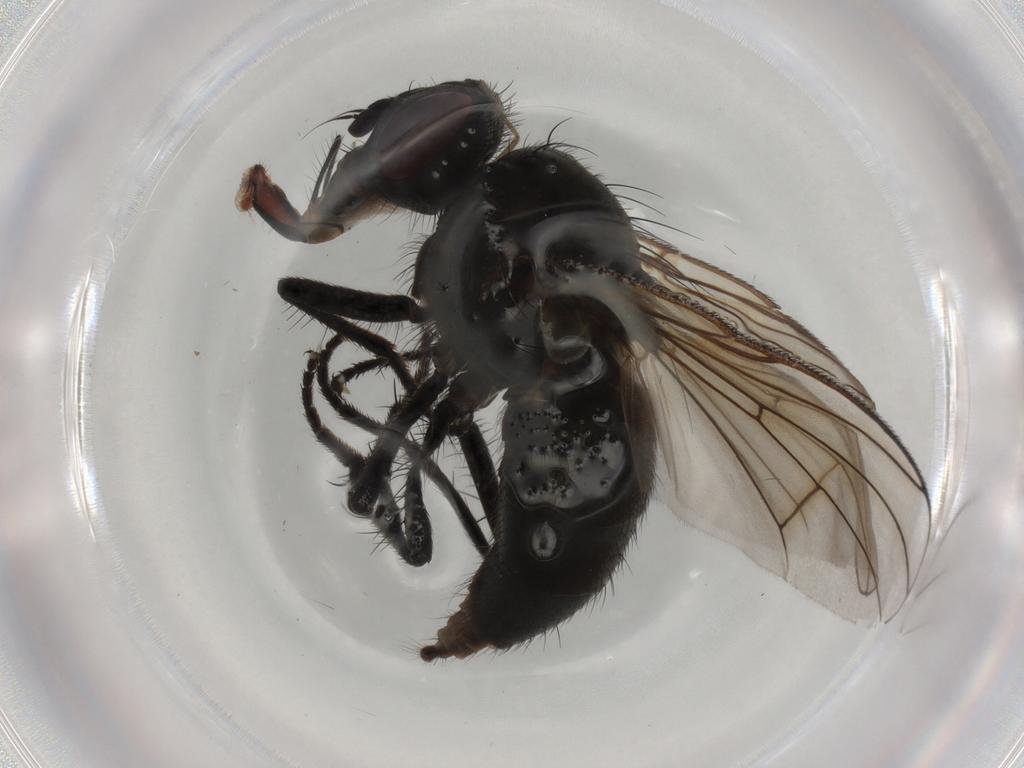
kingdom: Animalia
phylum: Arthropoda
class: Insecta
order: Diptera
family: Muscidae
